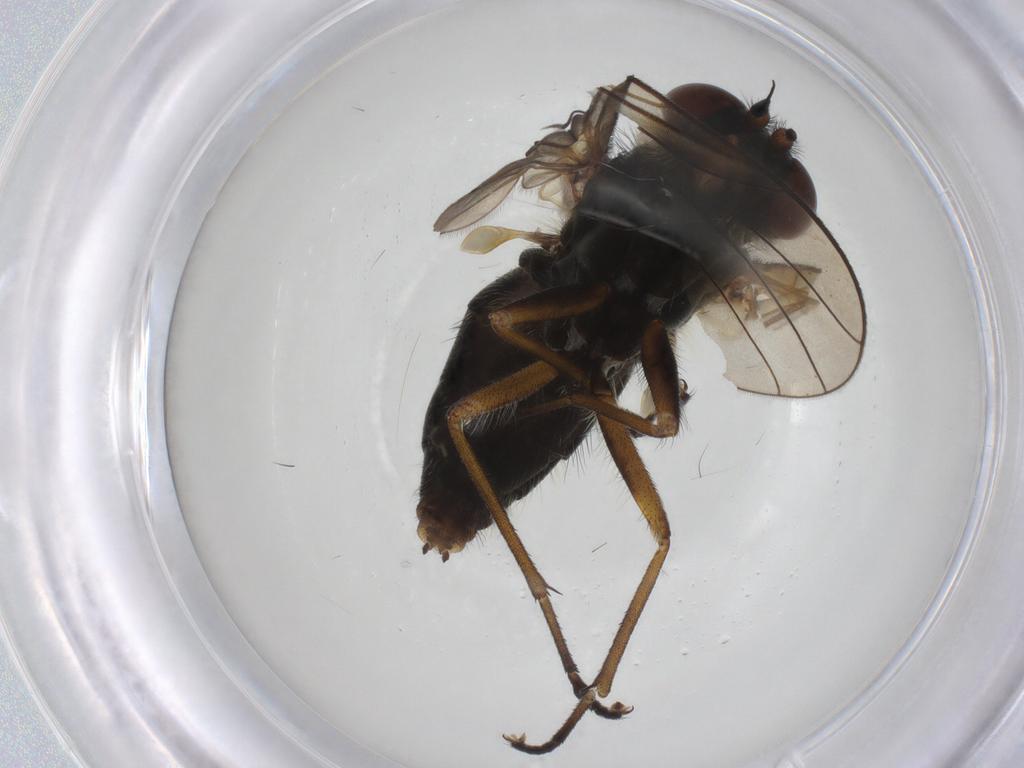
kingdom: Animalia
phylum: Arthropoda
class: Insecta
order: Diptera
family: Rhagionidae
